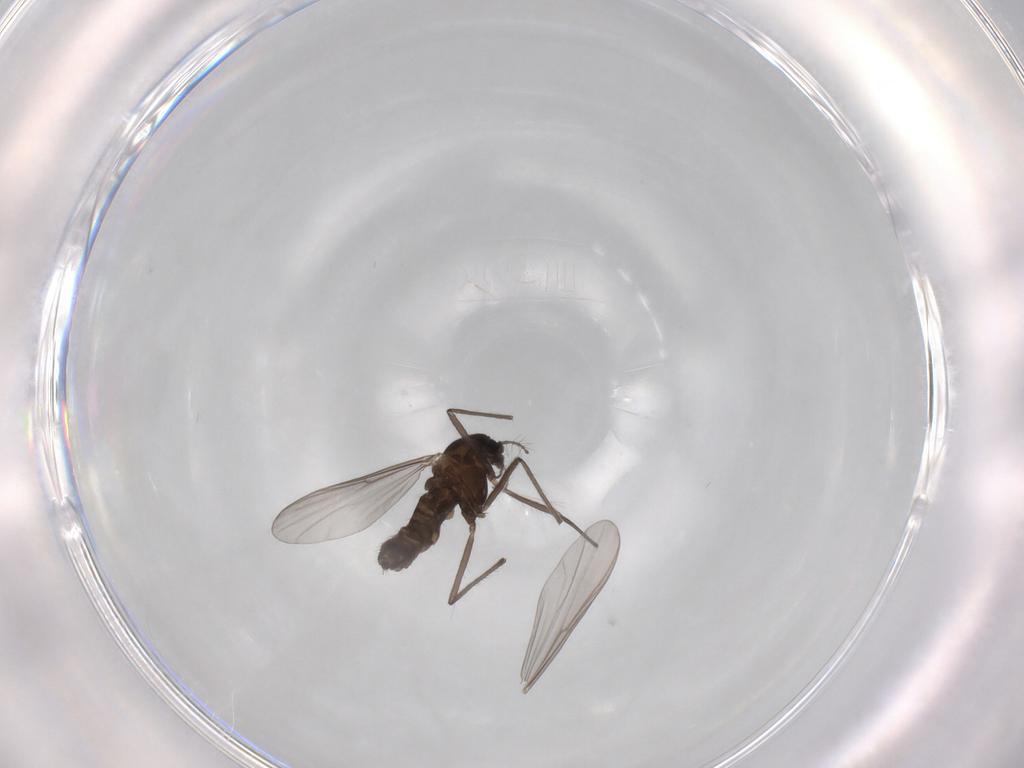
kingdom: Animalia
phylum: Arthropoda
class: Insecta
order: Diptera
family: Chironomidae
